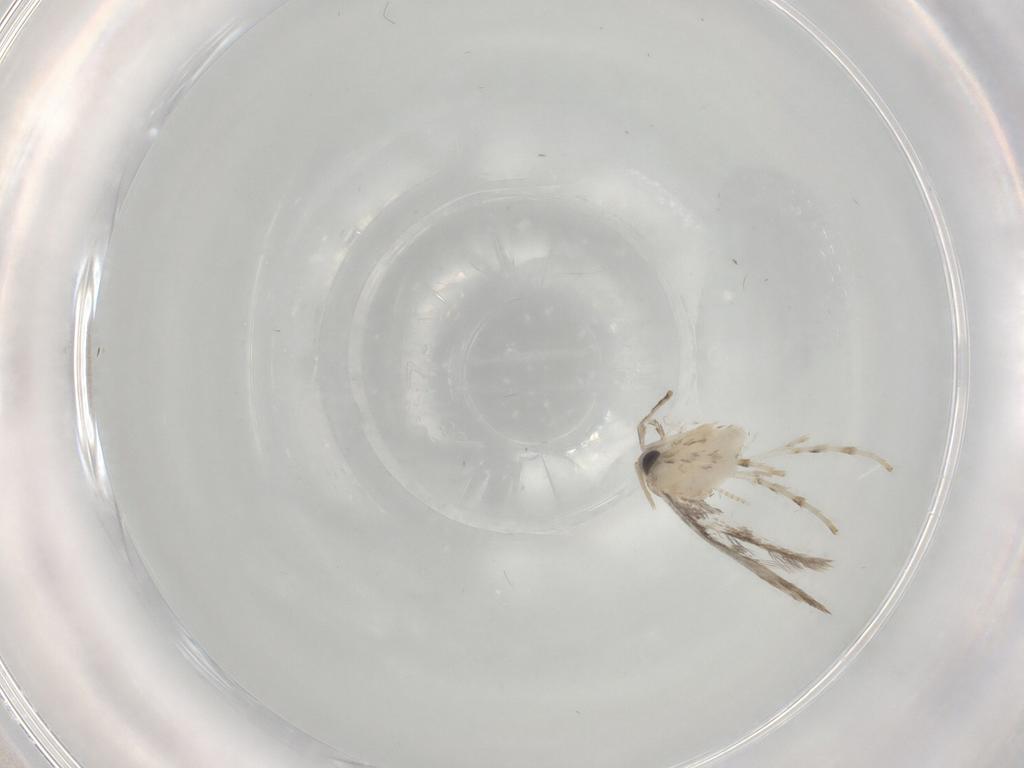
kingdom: Animalia
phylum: Arthropoda
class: Insecta
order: Lepidoptera
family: Gracillariidae
